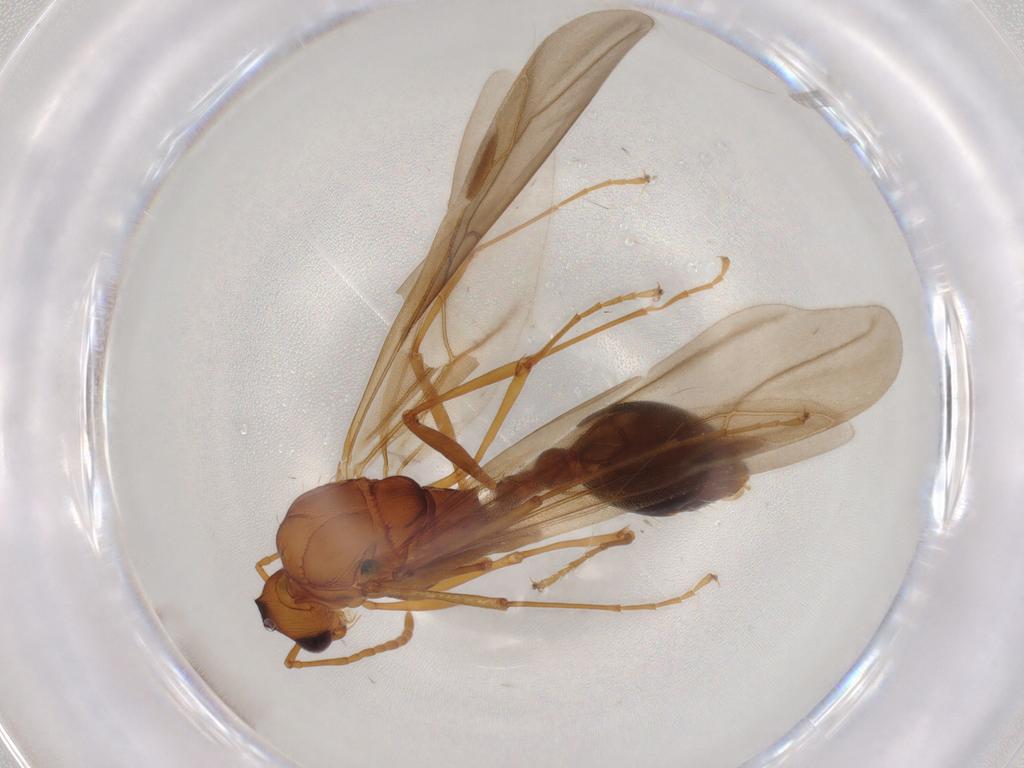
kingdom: Animalia
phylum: Arthropoda
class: Insecta
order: Hymenoptera
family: Formicidae
